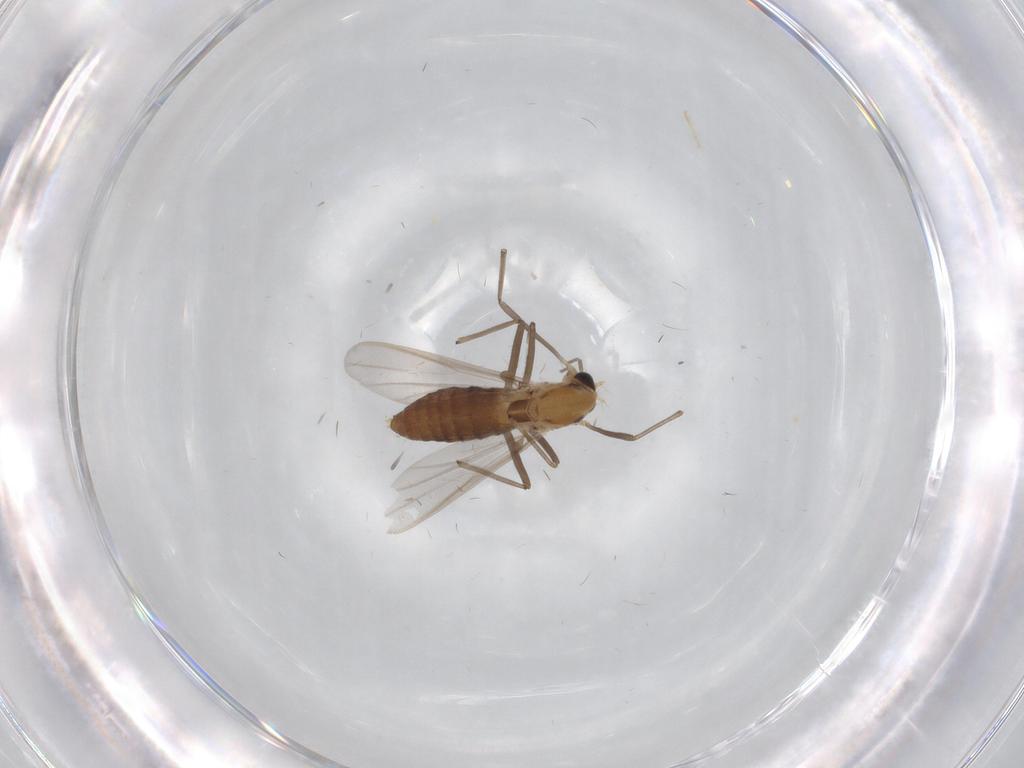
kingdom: Animalia
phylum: Arthropoda
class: Insecta
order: Diptera
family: Chironomidae
